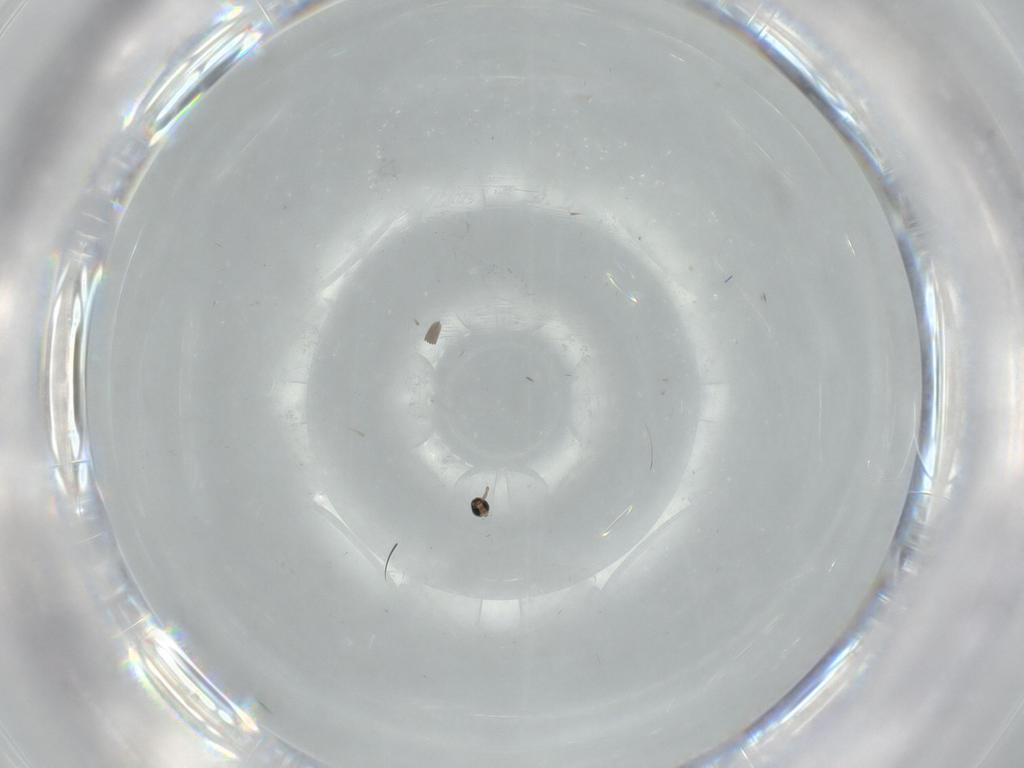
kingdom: Animalia
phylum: Arthropoda
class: Insecta
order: Diptera
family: Cecidomyiidae
